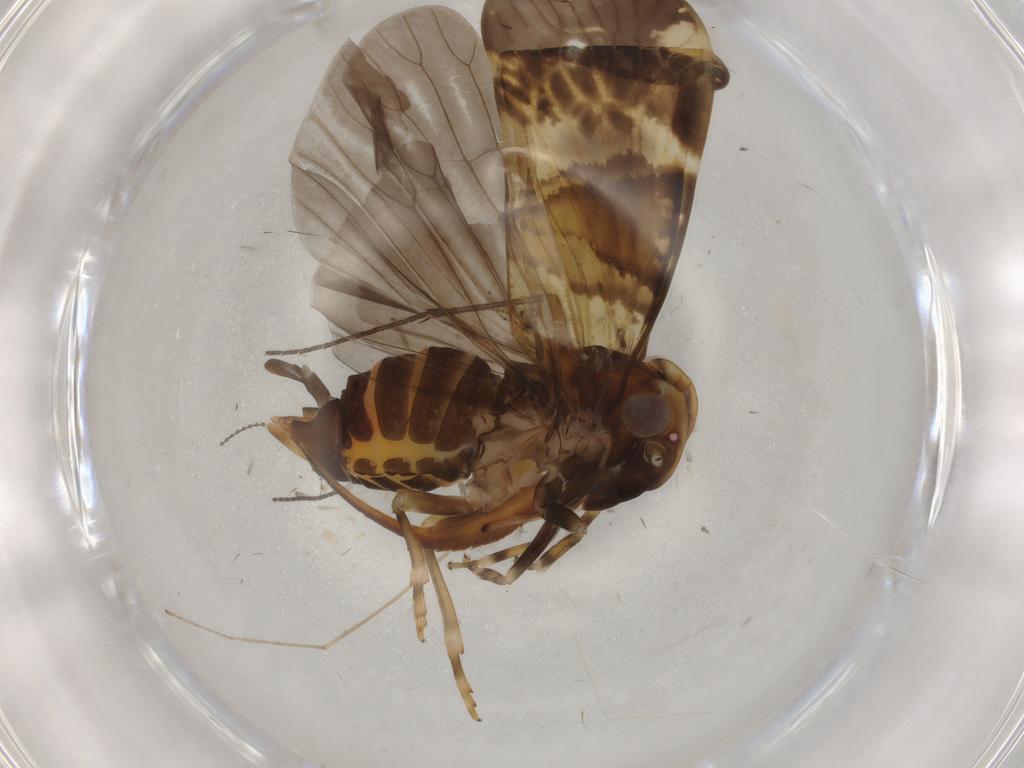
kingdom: Animalia
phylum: Arthropoda
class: Insecta
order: Hemiptera
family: Cixiidae
